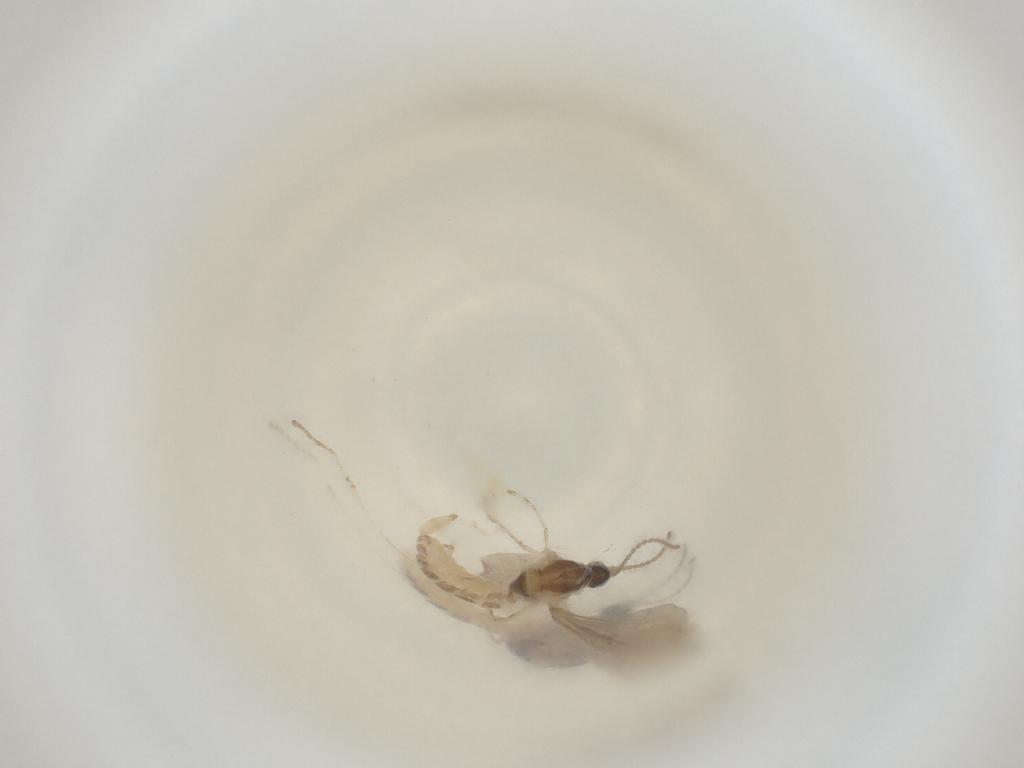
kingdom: Animalia
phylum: Arthropoda
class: Insecta
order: Diptera
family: Cecidomyiidae
